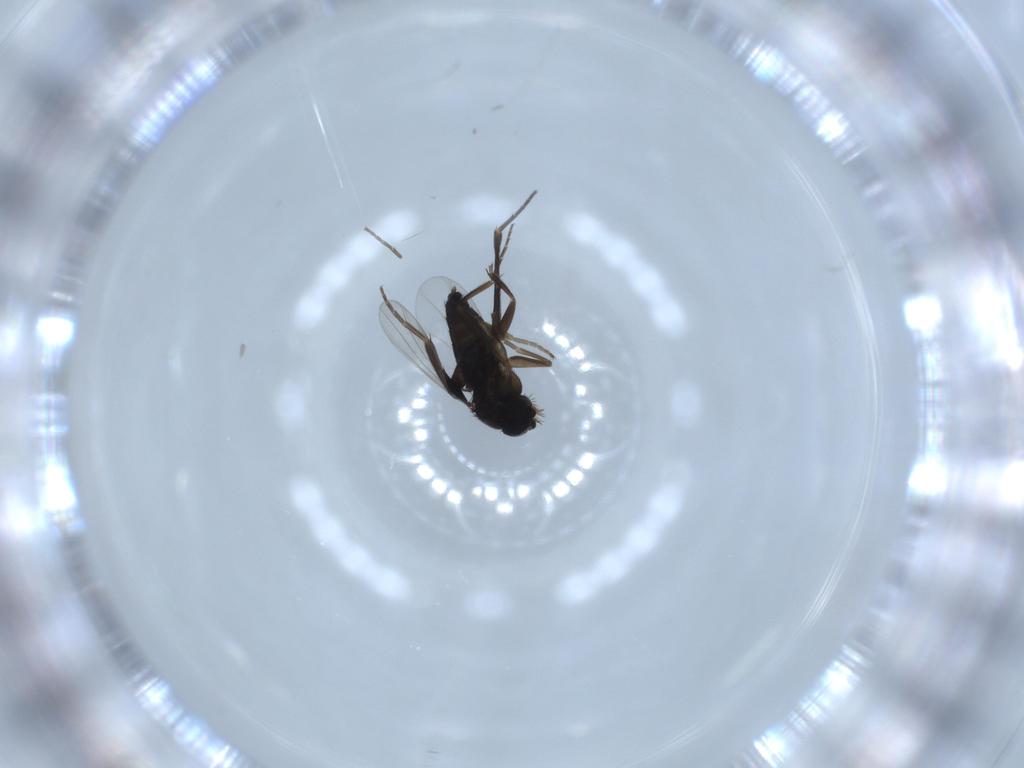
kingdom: Animalia
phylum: Arthropoda
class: Insecta
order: Diptera
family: Phoridae
